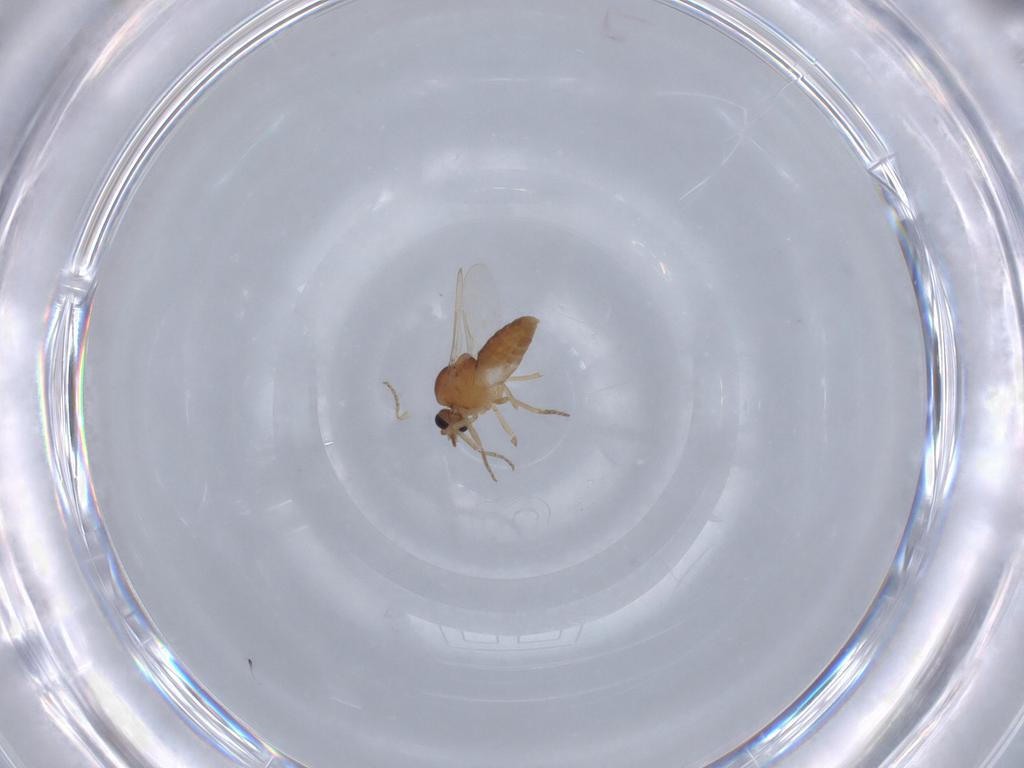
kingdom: Animalia
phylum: Arthropoda
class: Insecta
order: Diptera
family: Ceratopogonidae
